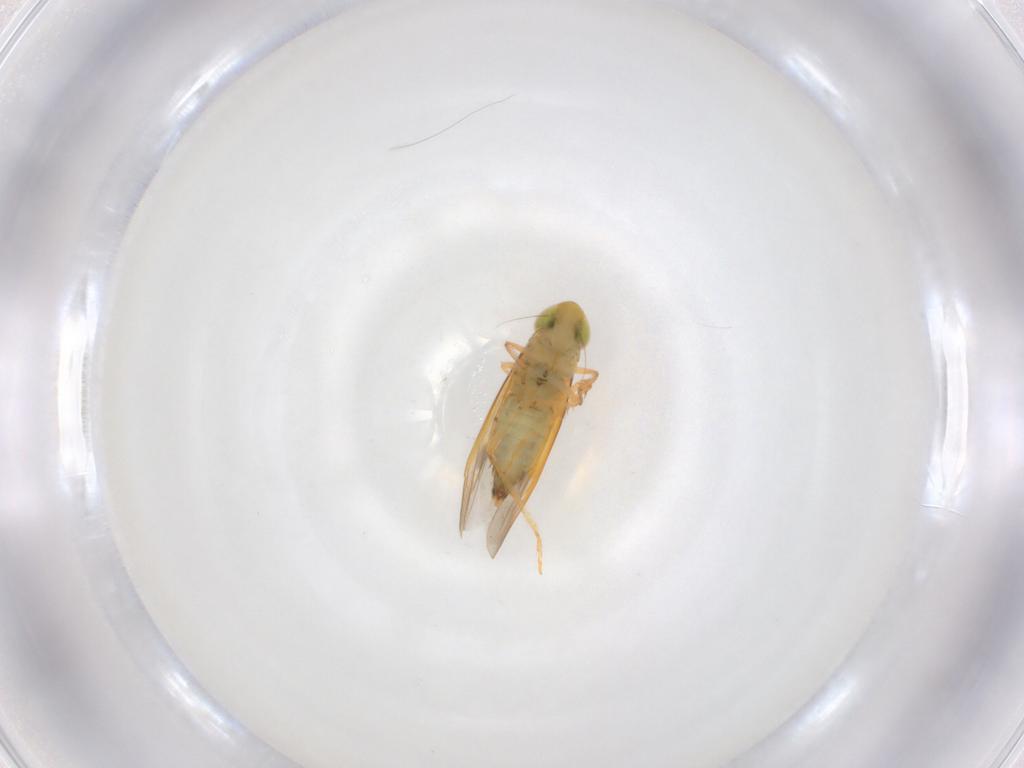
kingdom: Animalia
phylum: Arthropoda
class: Insecta
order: Hemiptera
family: Cicadellidae
